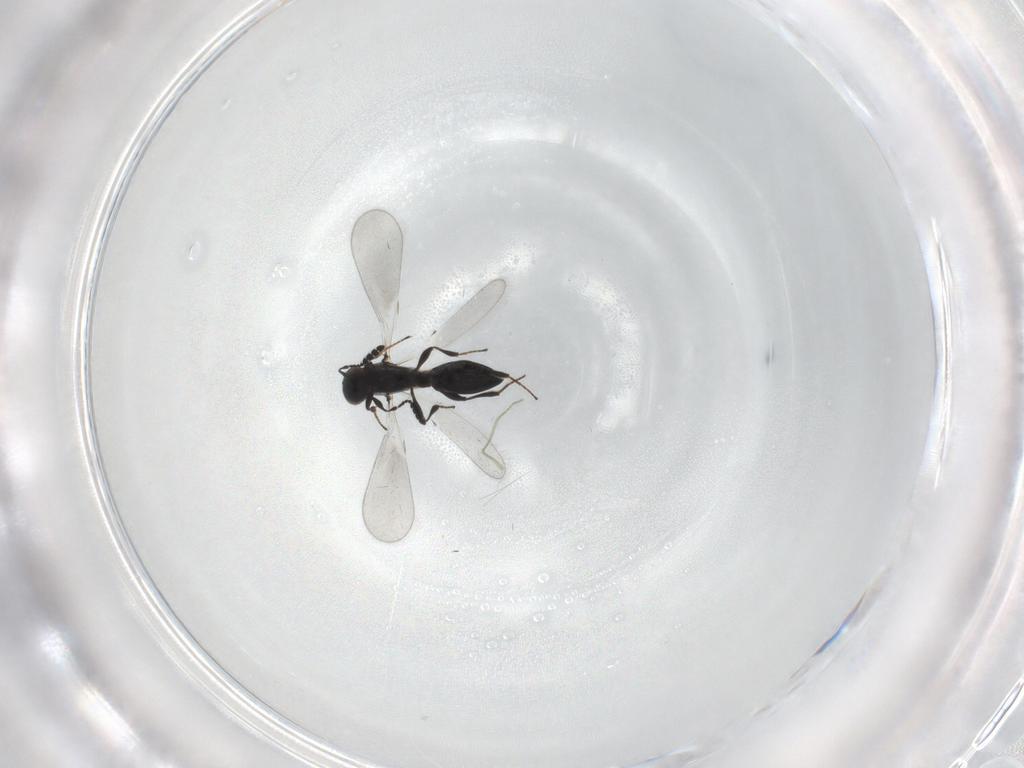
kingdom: Animalia
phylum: Arthropoda
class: Insecta
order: Hymenoptera
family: Platygastridae
